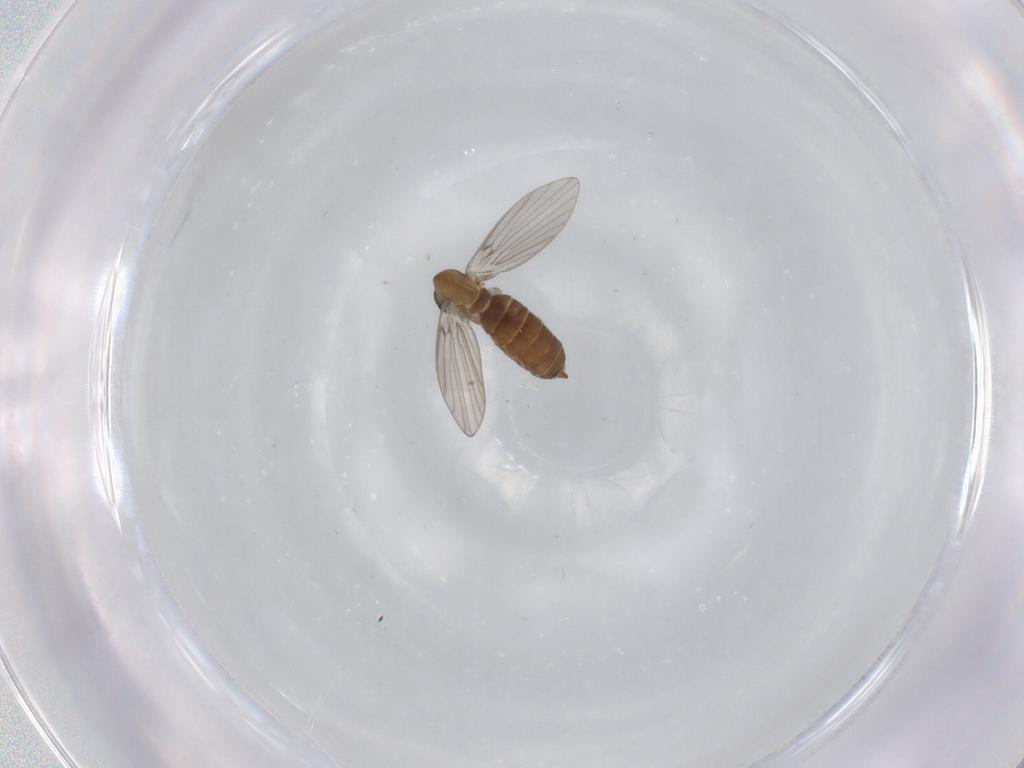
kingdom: Animalia
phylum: Arthropoda
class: Insecta
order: Diptera
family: Psychodidae
